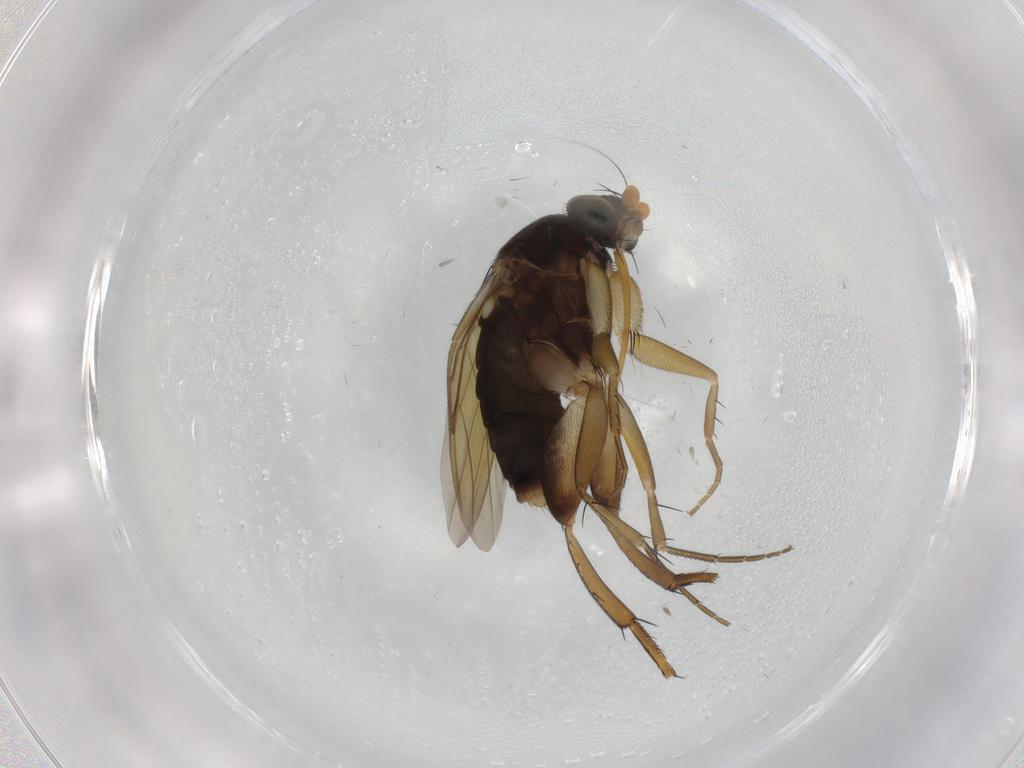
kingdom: Animalia
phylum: Arthropoda
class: Insecta
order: Diptera
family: Phoridae
